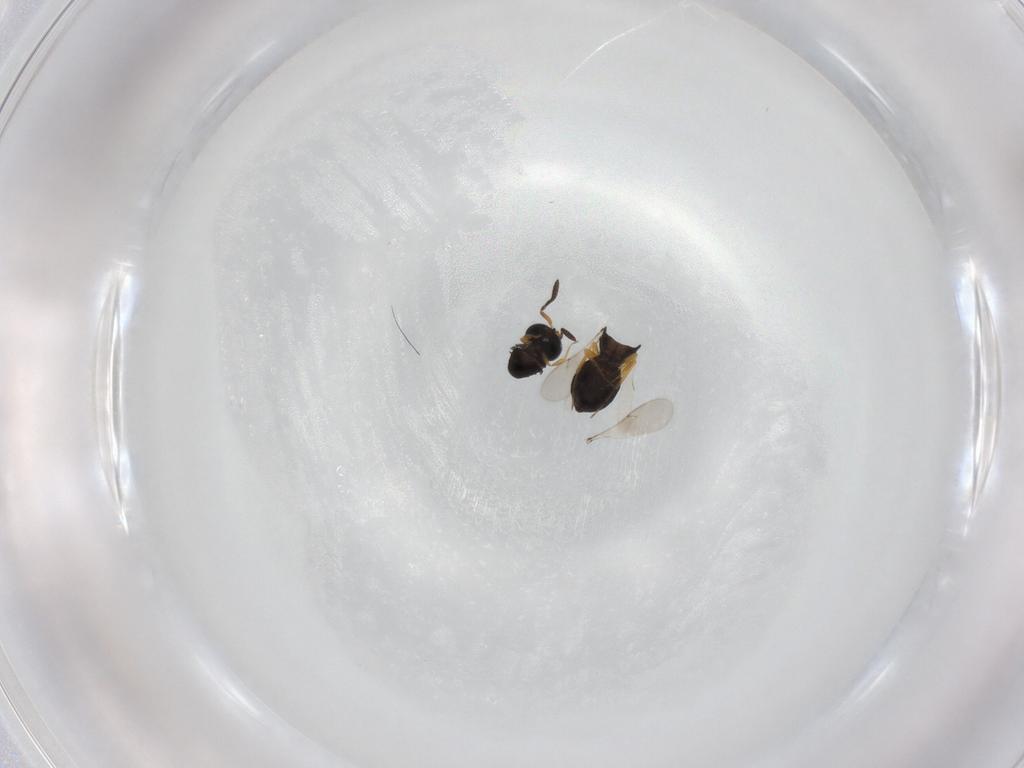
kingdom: Animalia
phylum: Arthropoda
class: Insecta
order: Hymenoptera
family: Scelionidae
